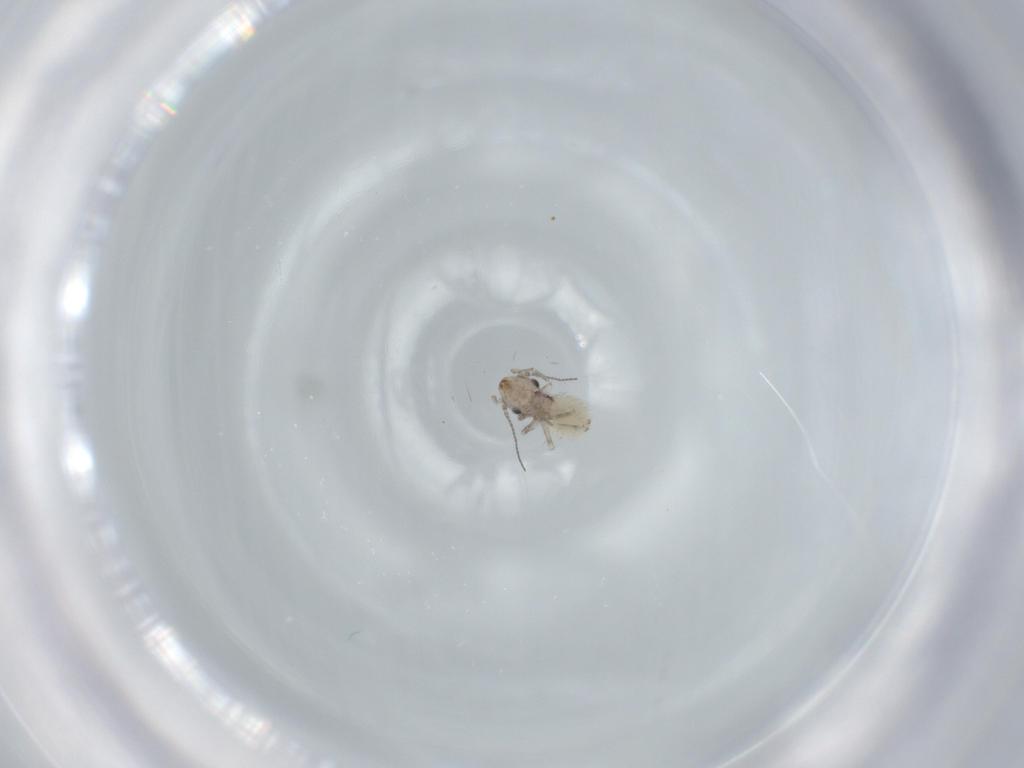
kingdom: Animalia
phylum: Arthropoda
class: Insecta
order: Psocodea
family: Lepidopsocidae
